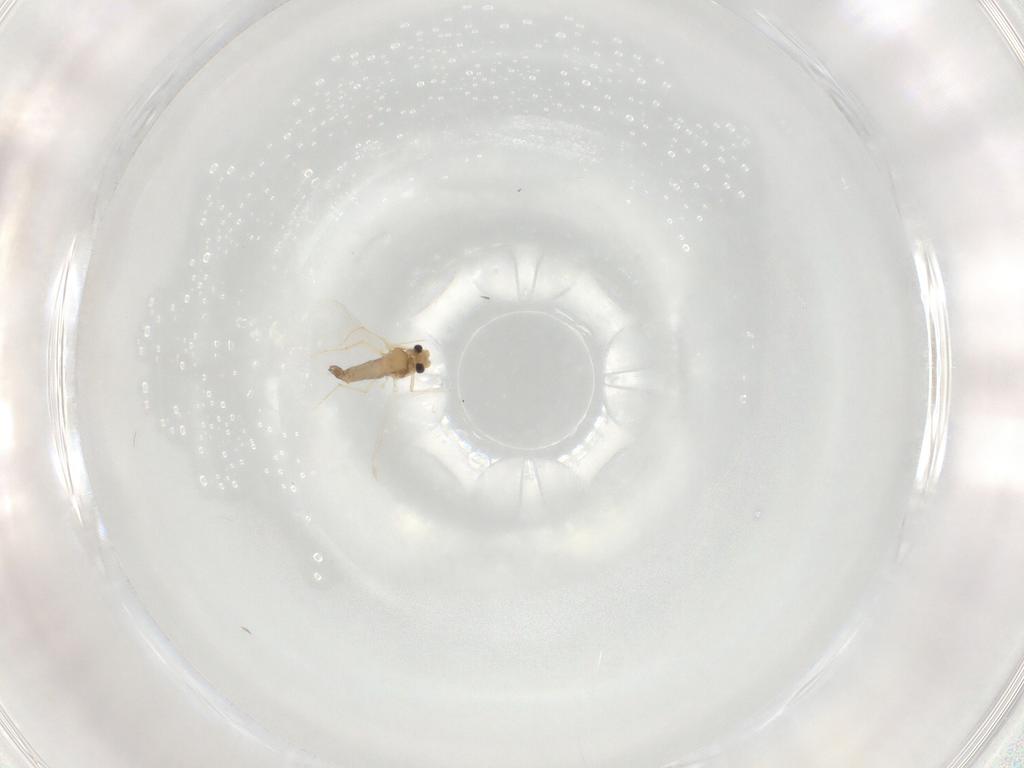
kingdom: Animalia
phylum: Arthropoda
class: Insecta
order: Diptera
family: Chironomidae
